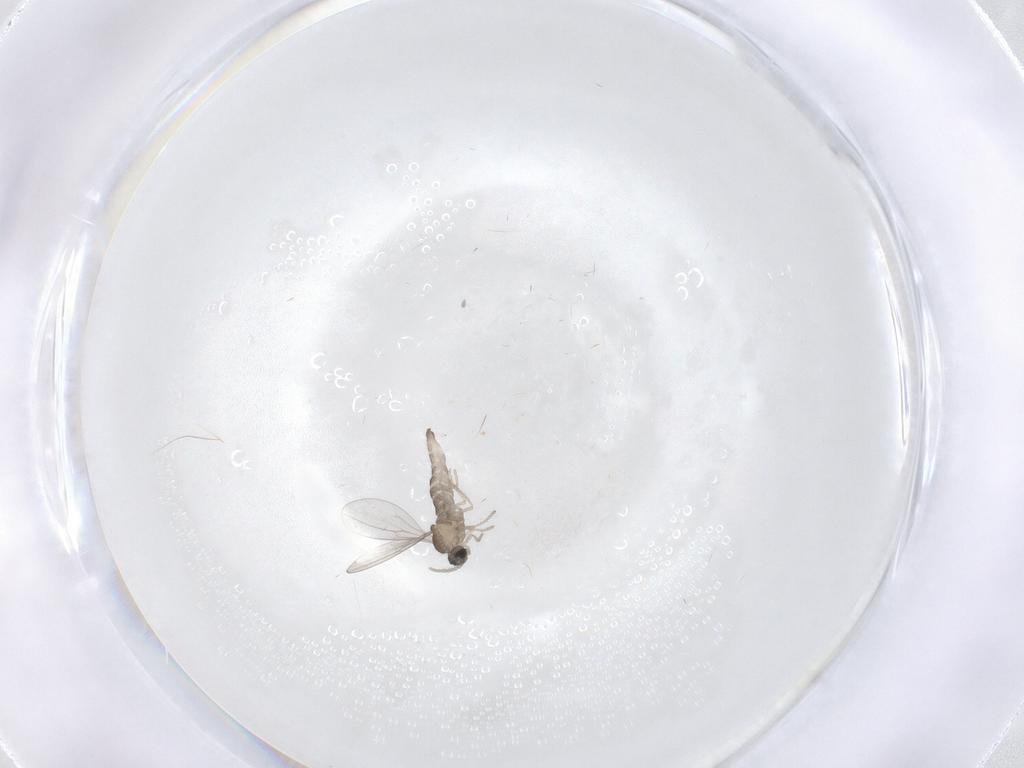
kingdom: Animalia
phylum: Arthropoda
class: Insecta
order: Diptera
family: Cecidomyiidae
